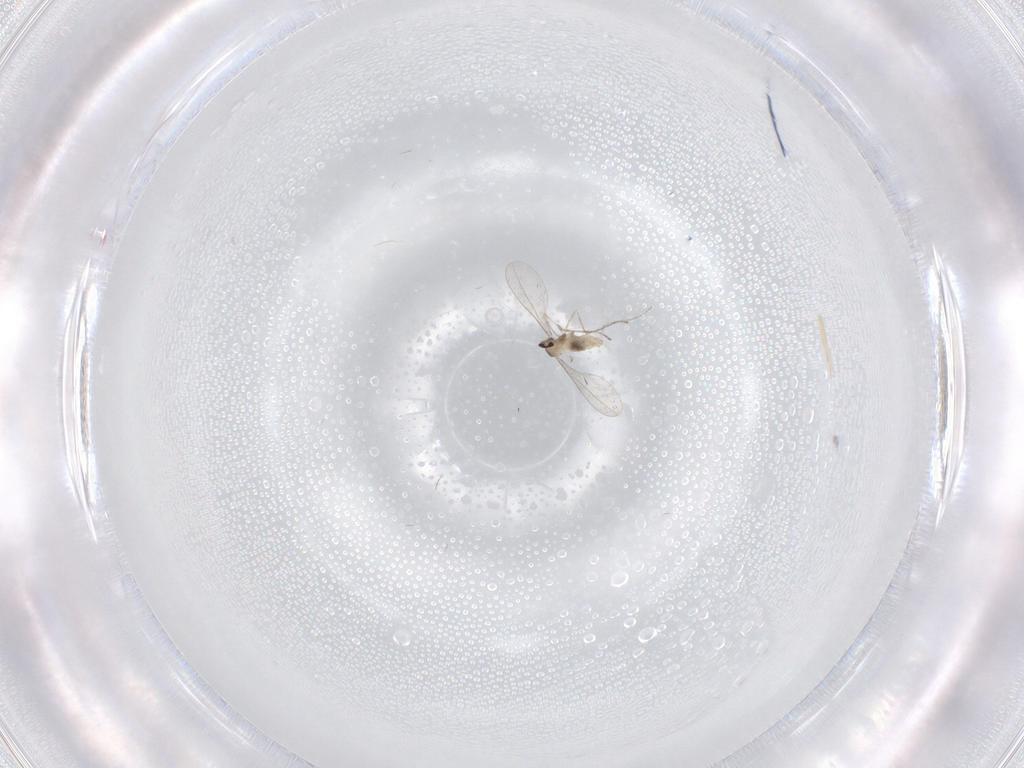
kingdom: Animalia
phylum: Arthropoda
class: Insecta
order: Diptera
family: Cecidomyiidae
